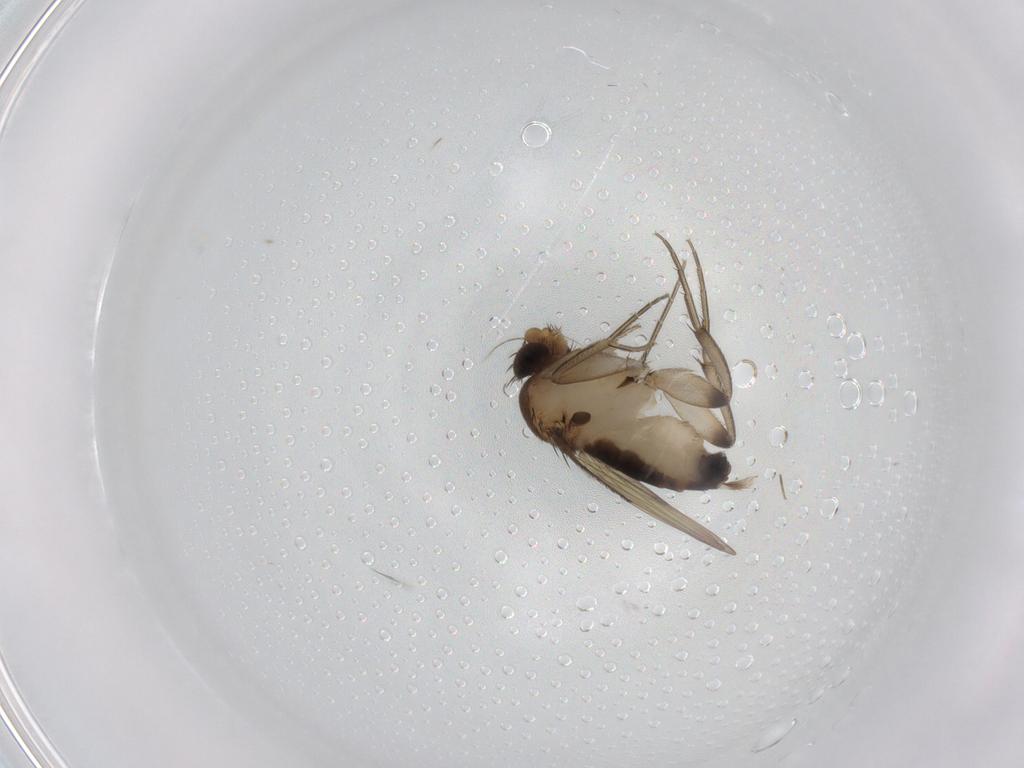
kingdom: Animalia
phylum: Arthropoda
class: Insecta
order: Diptera
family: Phoridae
